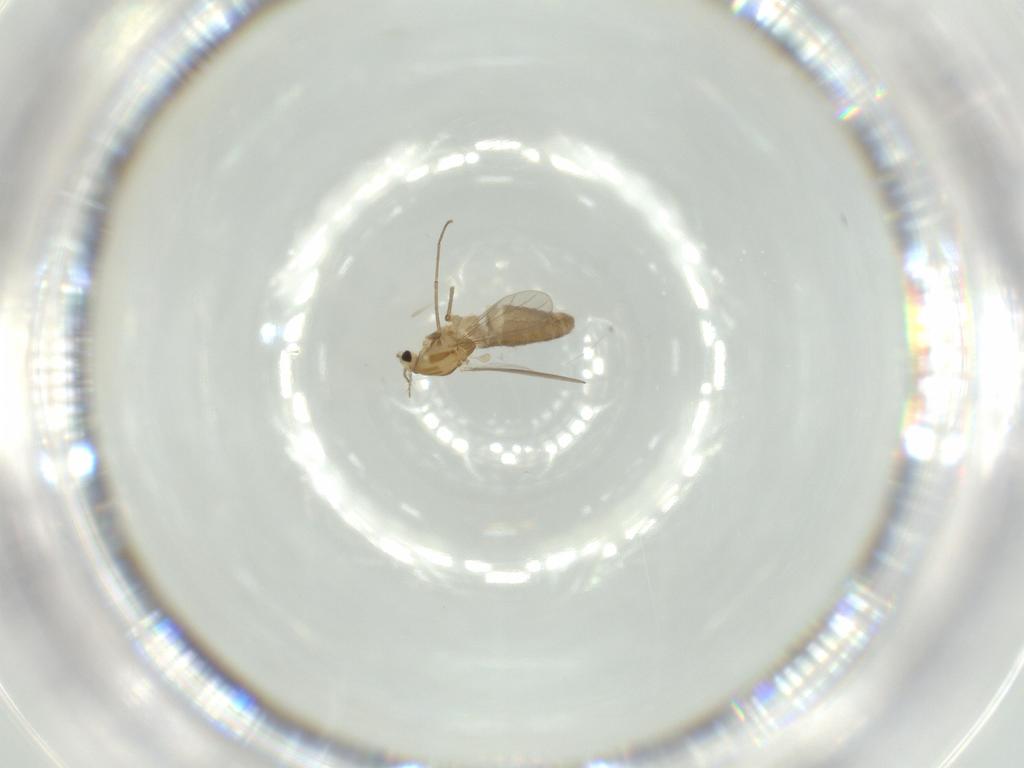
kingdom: Animalia
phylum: Arthropoda
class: Insecta
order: Diptera
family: Chironomidae
